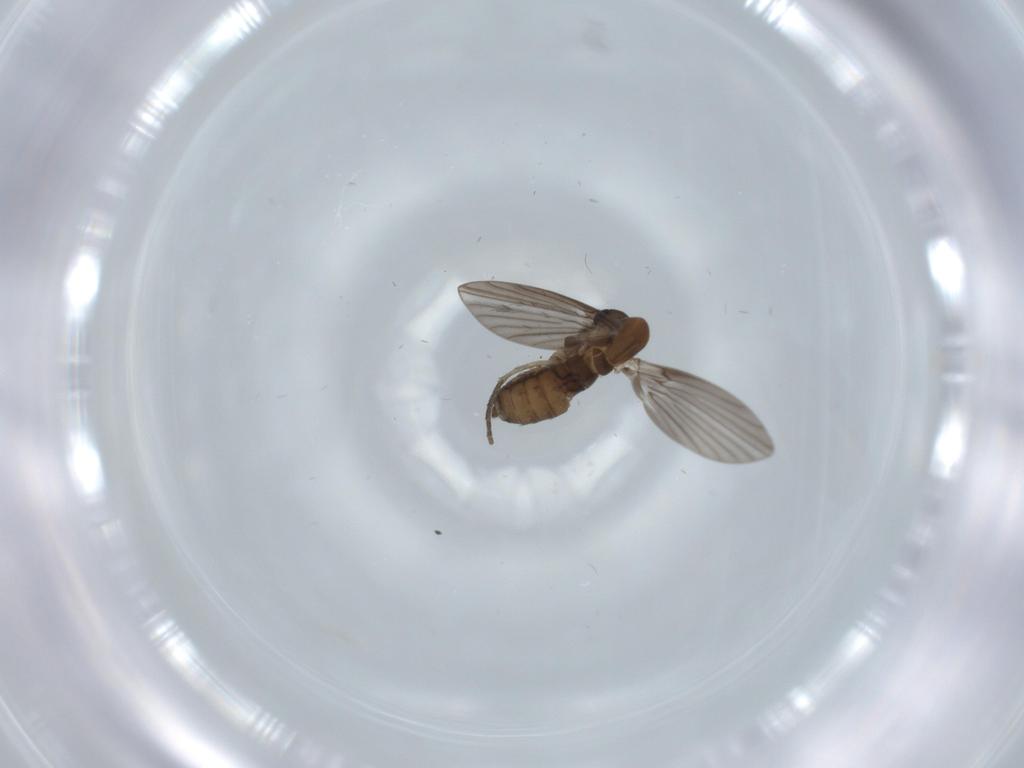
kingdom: Animalia
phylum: Arthropoda
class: Insecta
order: Diptera
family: Psychodidae
